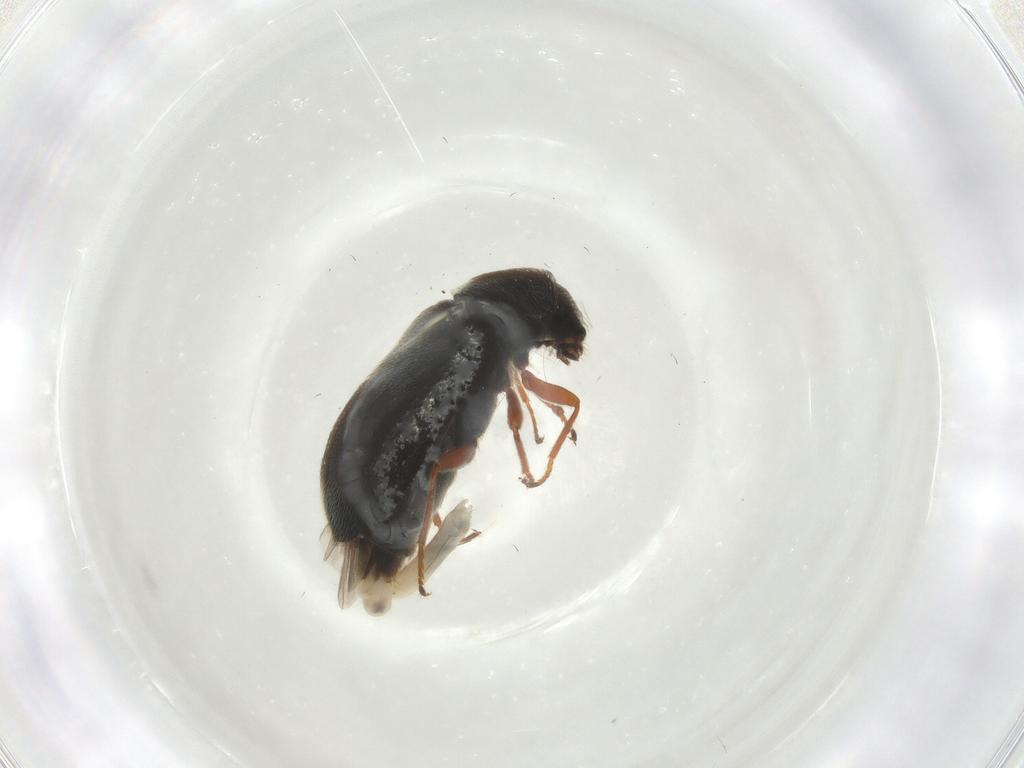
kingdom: Animalia
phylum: Arthropoda
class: Insecta
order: Coleoptera
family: Melyridae
